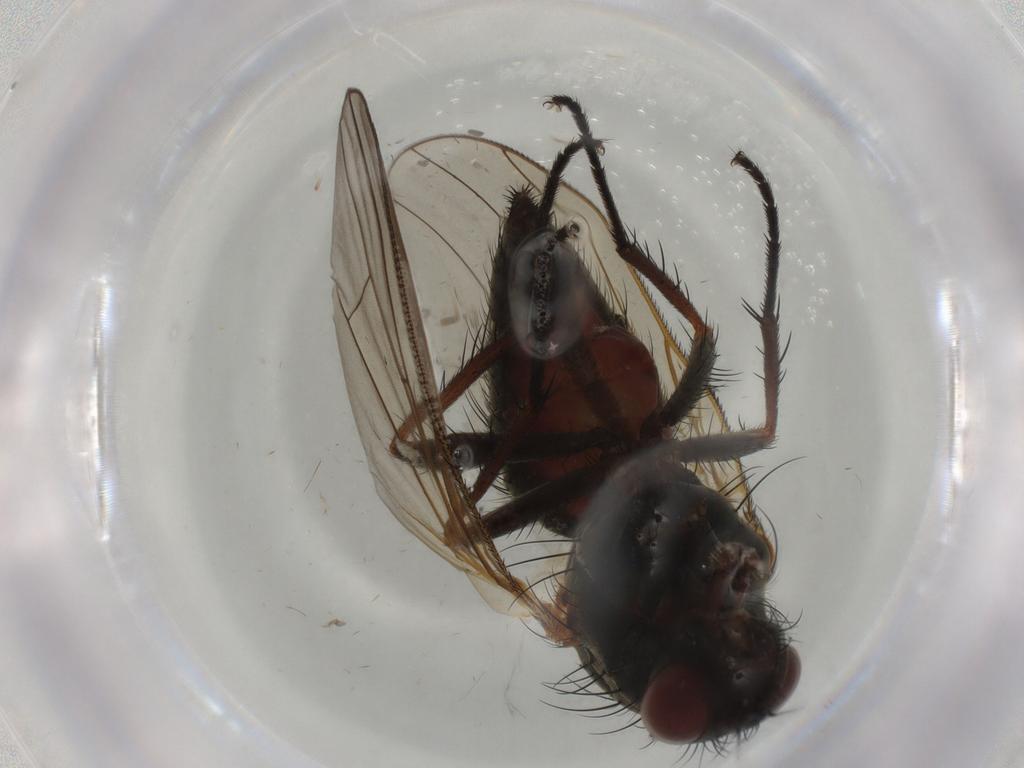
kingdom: Animalia
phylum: Arthropoda
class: Insecta
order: Diptera
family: Anthomyiidae
